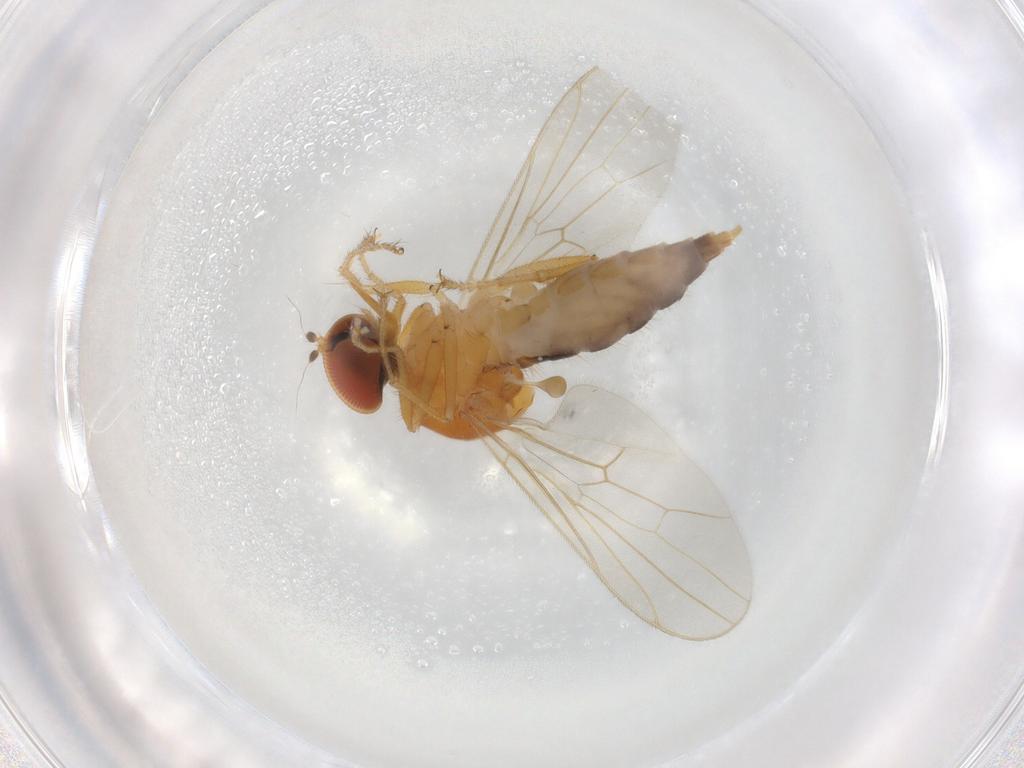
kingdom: Animalia
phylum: Arthropoda
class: Insecta
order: Diptera
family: Hybotidae
